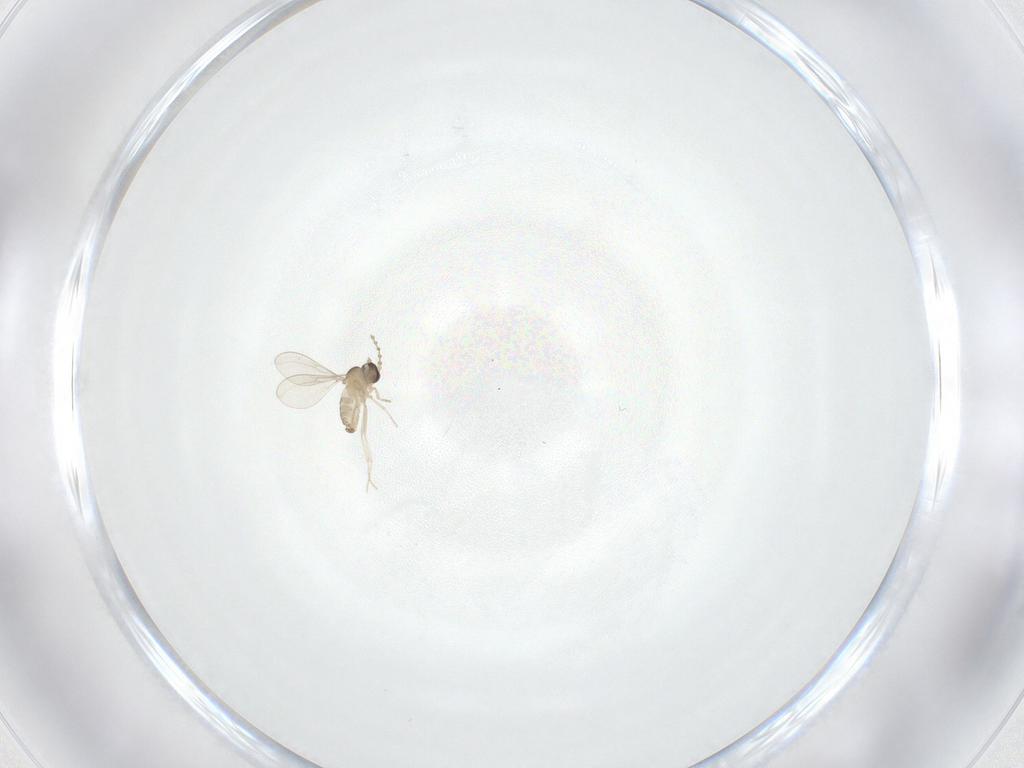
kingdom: Animalia
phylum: Arthropoda
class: Insecta
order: Diptera
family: Cecidomyiidae
